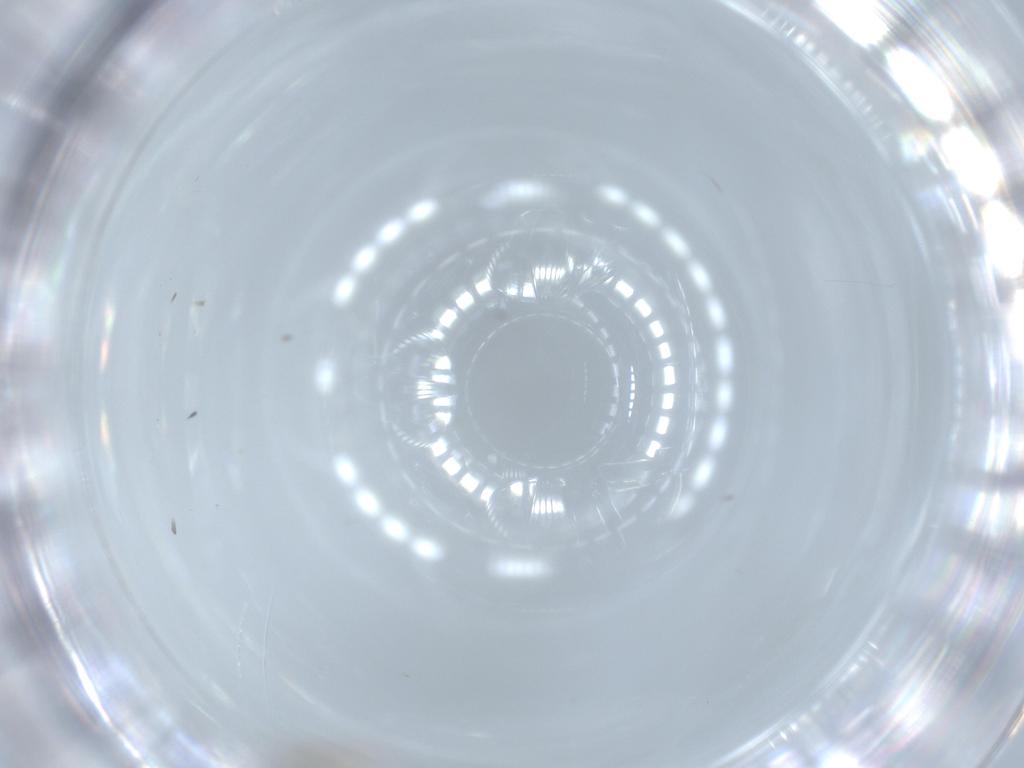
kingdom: Animalia
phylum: Arthropoda
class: Insecta
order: Diptera
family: Cecidomyiidae
